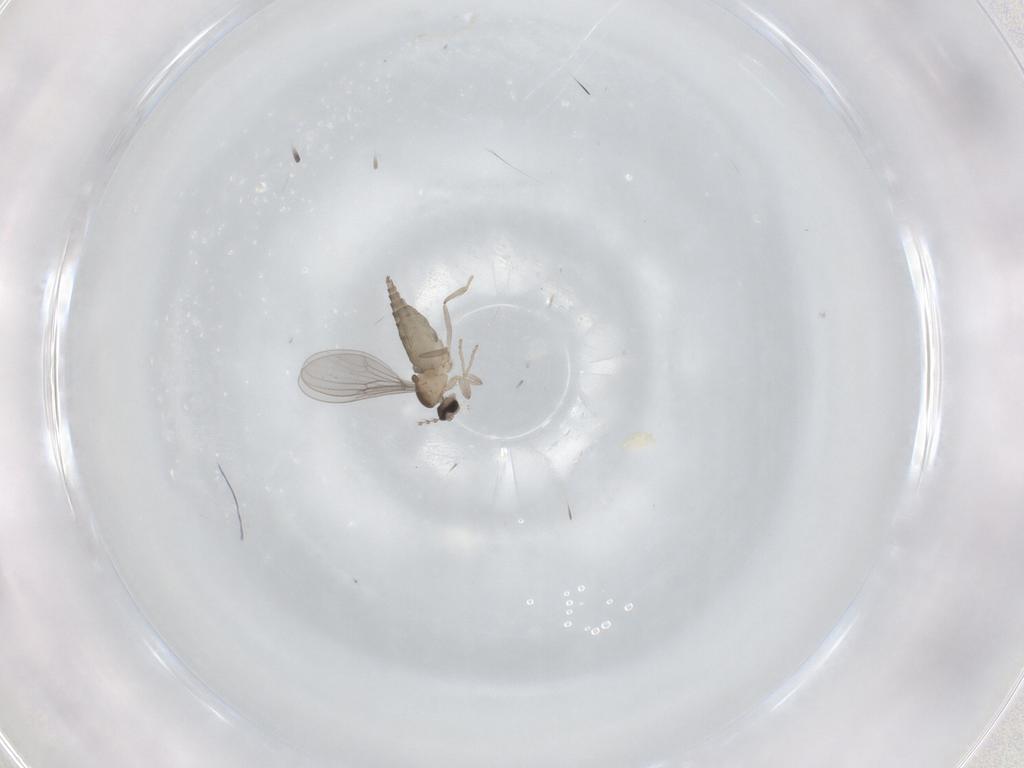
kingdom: Animalia
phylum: Arthropoda
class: Insecta
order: Diptera
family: Cecidomyiidae
